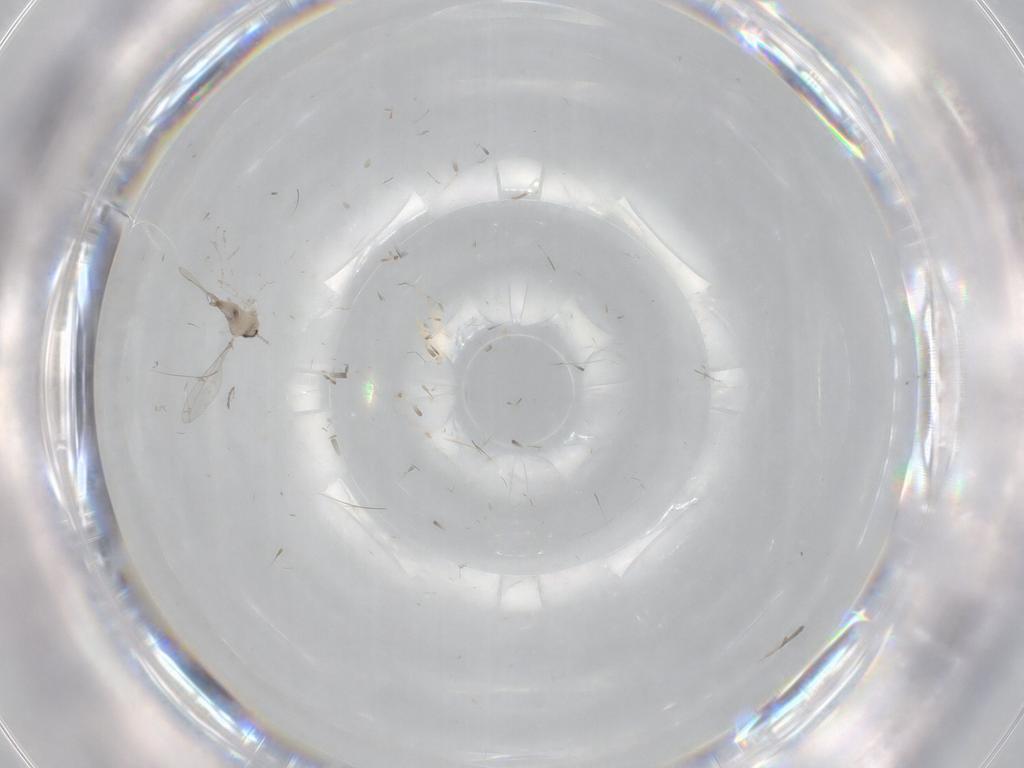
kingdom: Animalia
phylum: Arthropoda
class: Insecta
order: Diptera
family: Cecidomyiidae
